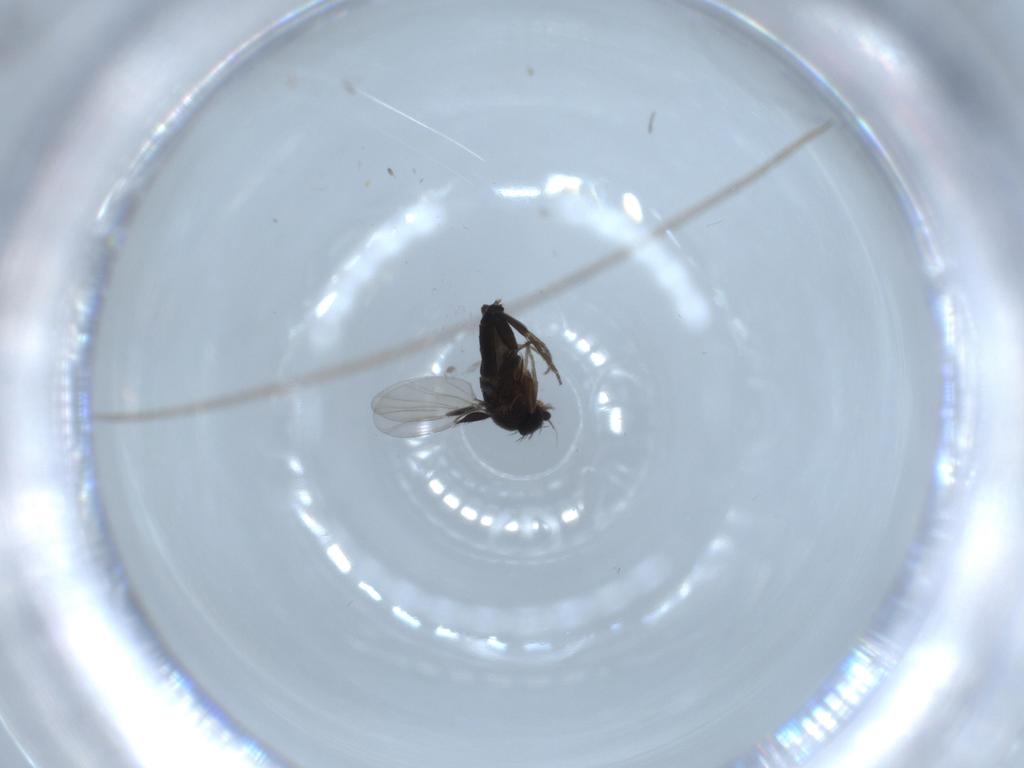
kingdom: Animalia
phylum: Arthropoda
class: Insecta
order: Diptera
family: Phoridae
